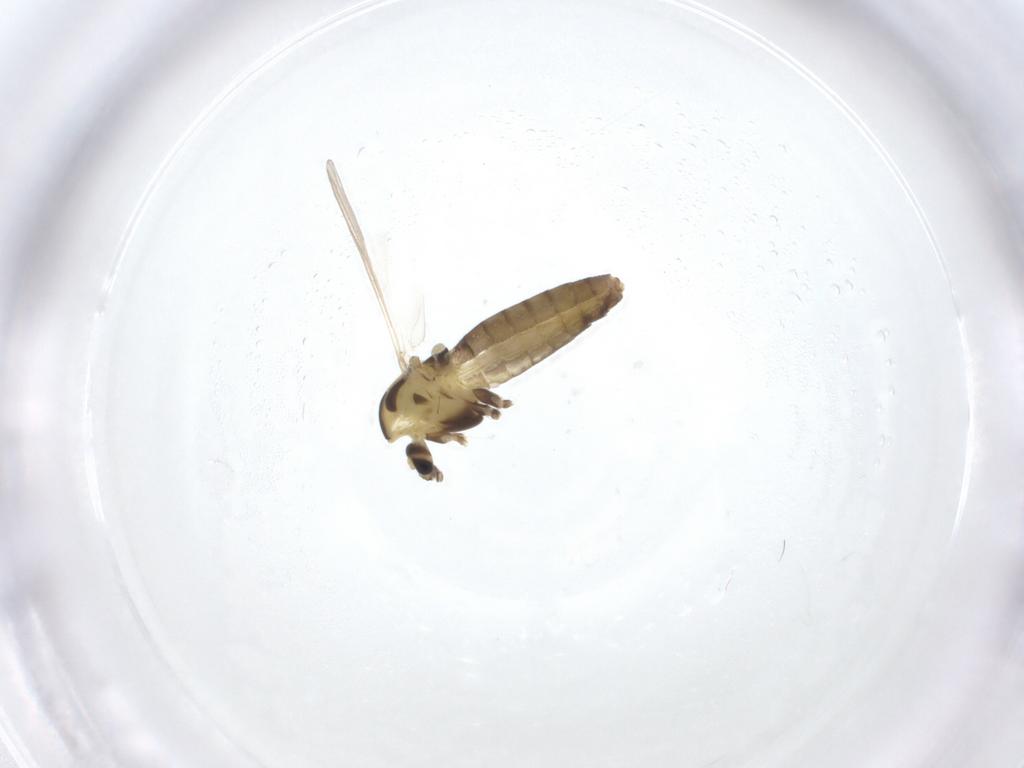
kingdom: Animalia
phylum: Arthropoda
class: Insecta
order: Diptera
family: Chironomidae
